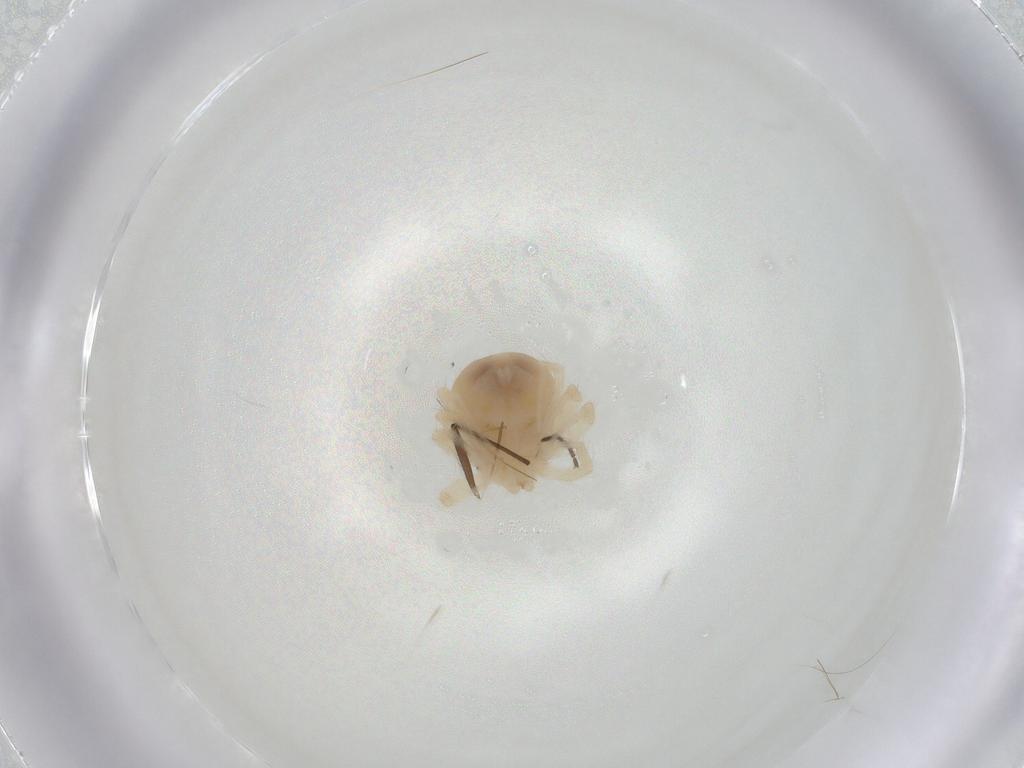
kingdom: Animalia
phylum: Arthropoda
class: Arachnida
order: Trombidiformes
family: Anystidae
